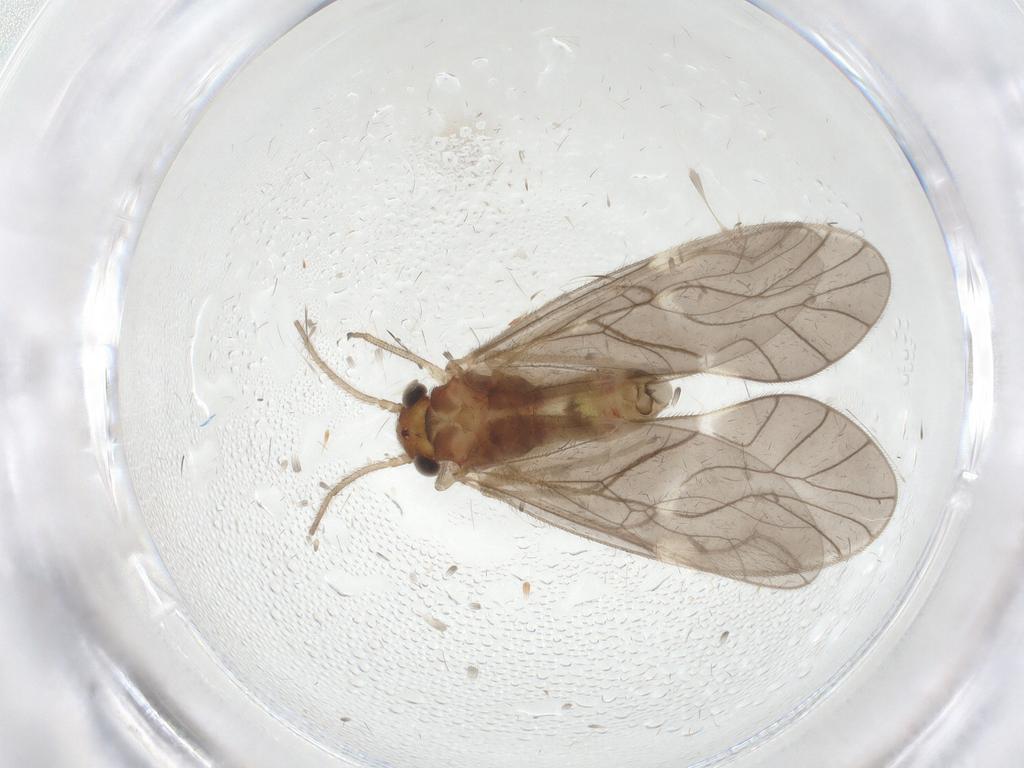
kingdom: Animalia
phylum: Arthropoda
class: Insecta
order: Psocodea
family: Caeciliusidae
